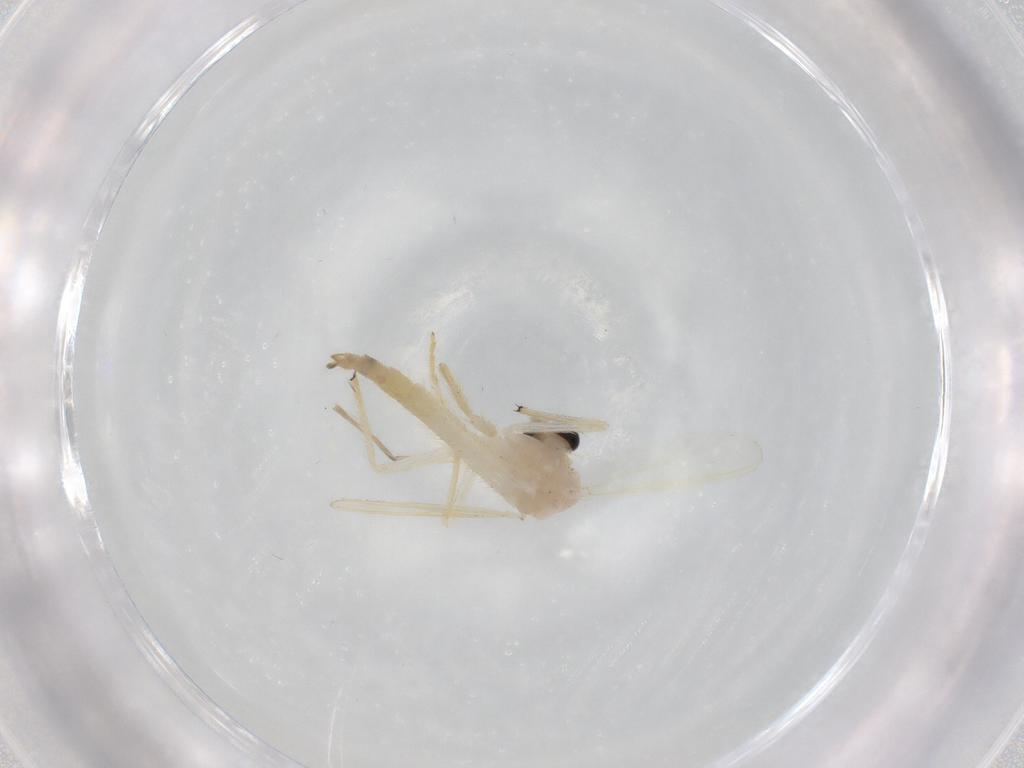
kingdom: Animalia
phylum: Arthropoda
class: Insecta
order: Diptera
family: Chironomidae
